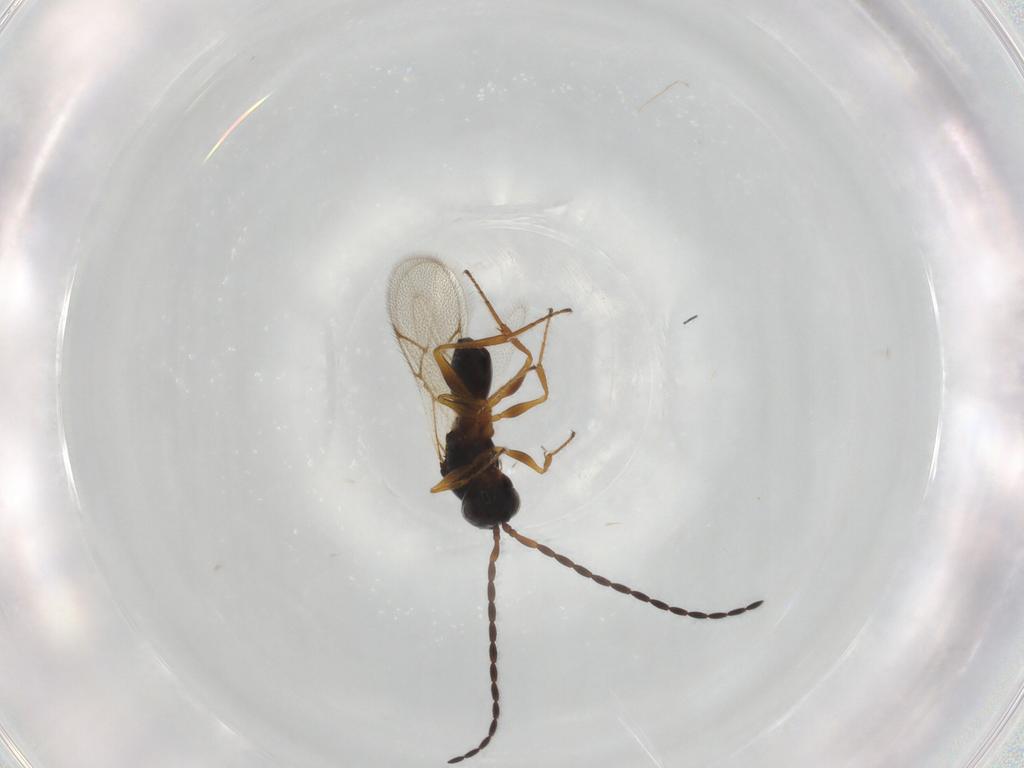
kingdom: Animalia
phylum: Arthropoda
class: Insecta
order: Hymenoptera
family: Figitidae
